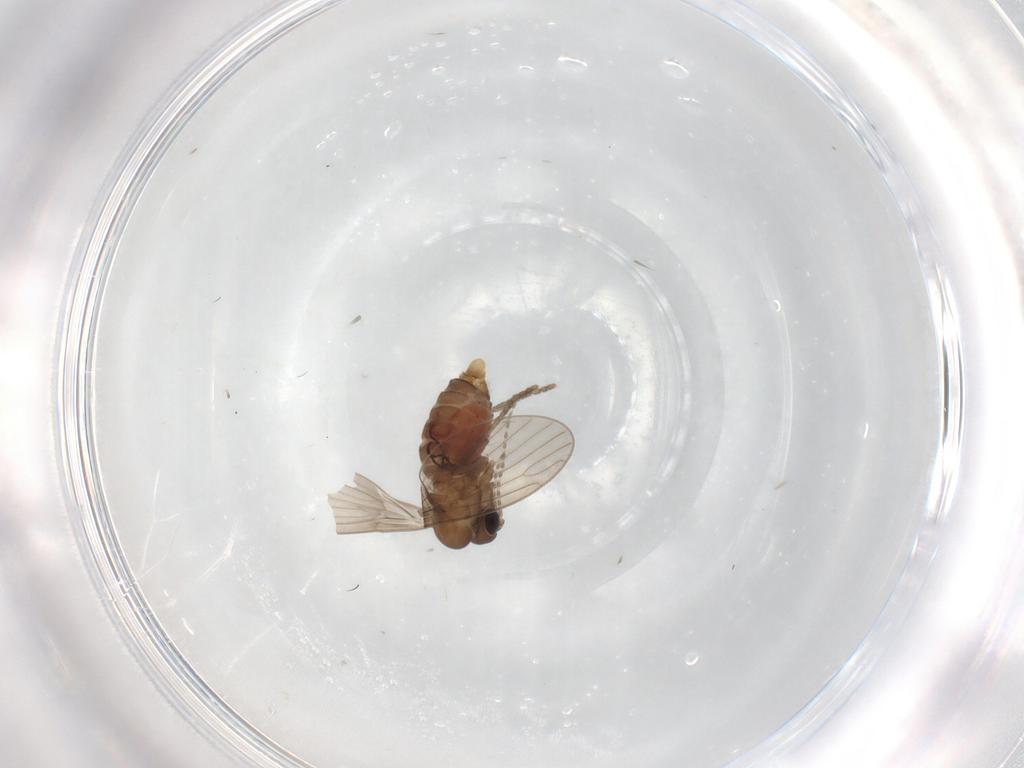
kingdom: Animalia
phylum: Arthropoda
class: Insecta
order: Diptera
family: Psychodidae
